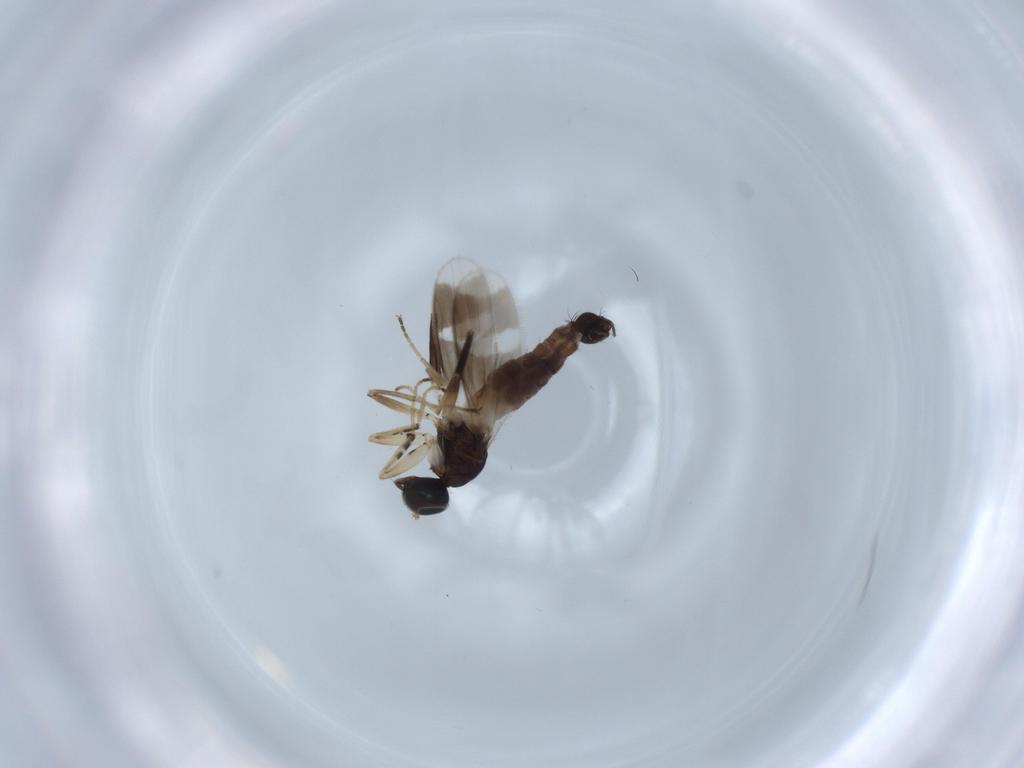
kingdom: Animalia
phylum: Arthropoda
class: Insecta
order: Diptera
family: Hybotidae
